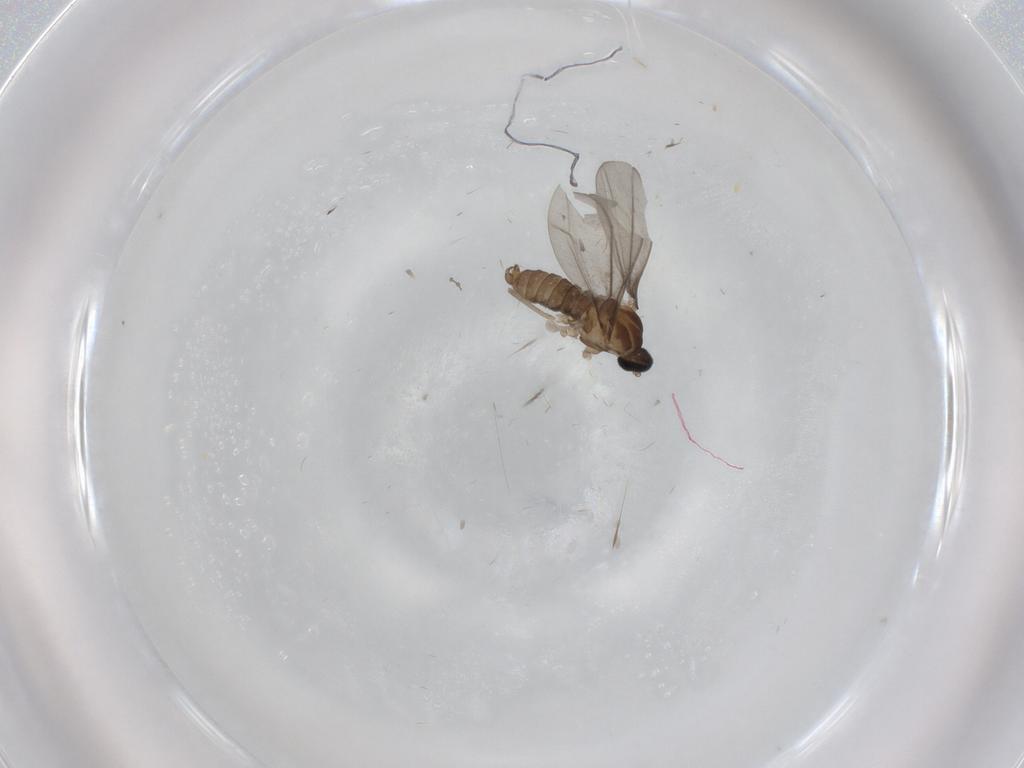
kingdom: Animalia
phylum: Arthropoda
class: Insecta
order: Diptera
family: Cecidomyiidae
